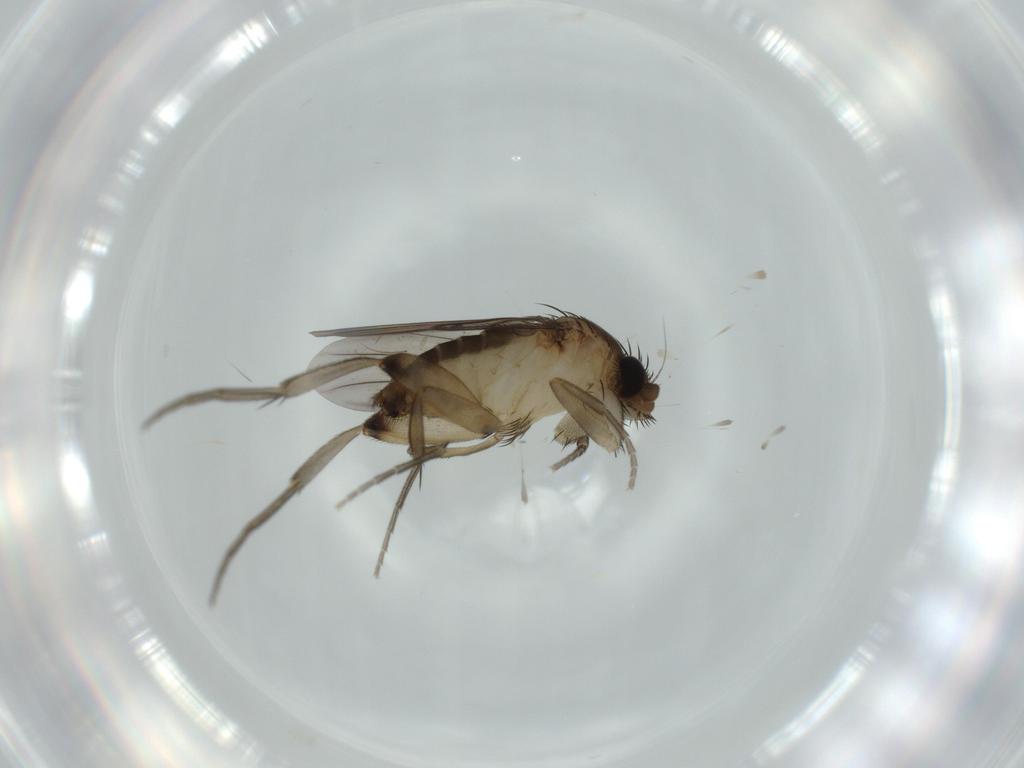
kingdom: Animalia
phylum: Arthropoda
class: Insecta
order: Diptera
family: Phoridae
